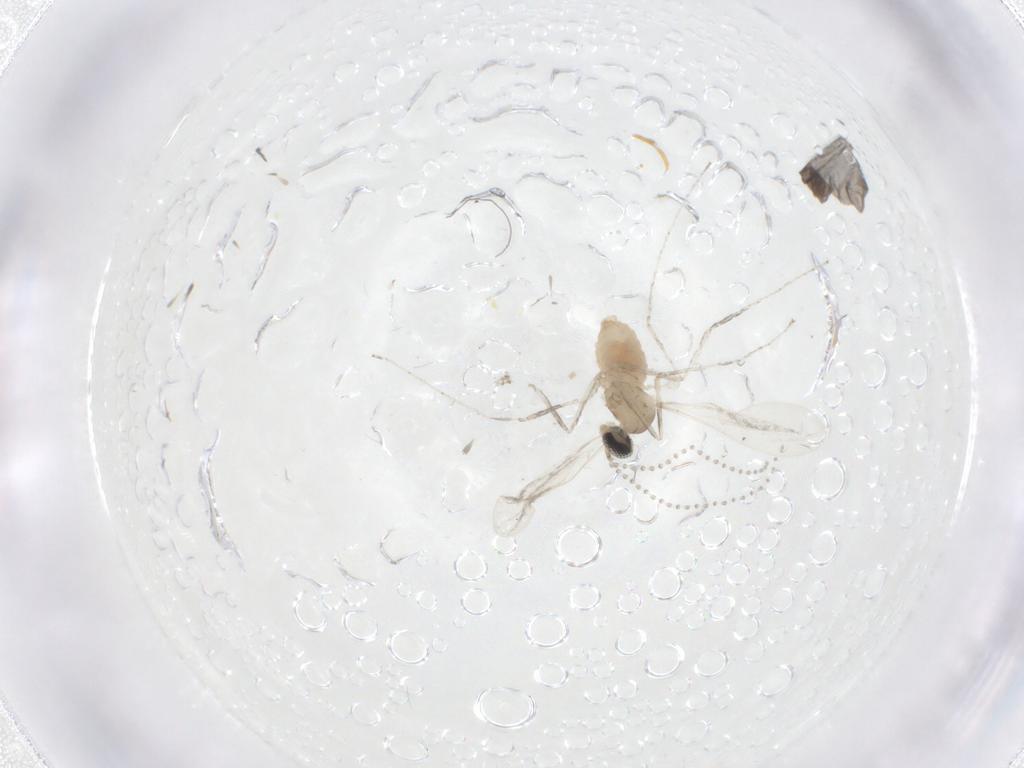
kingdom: Animalia
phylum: Arthropoda
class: Insecta
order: Diptera
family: Cecidomyiidae
